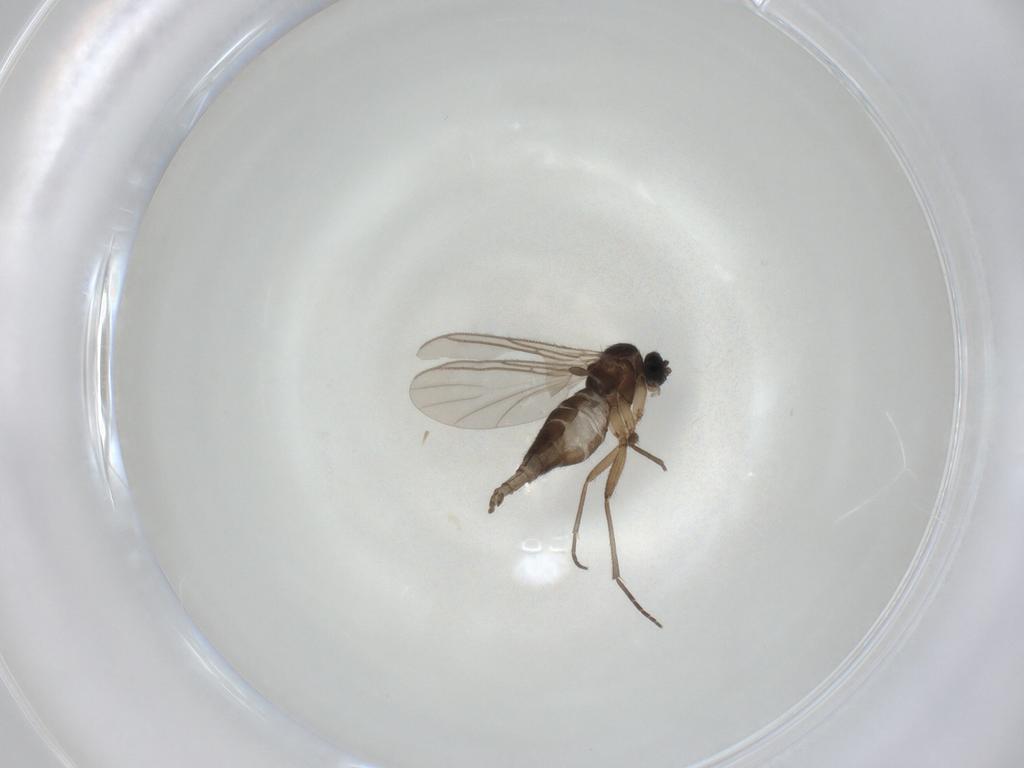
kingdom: Animalia
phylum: Arthropoda
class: Insecta
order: Diptera
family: Sciaridae
